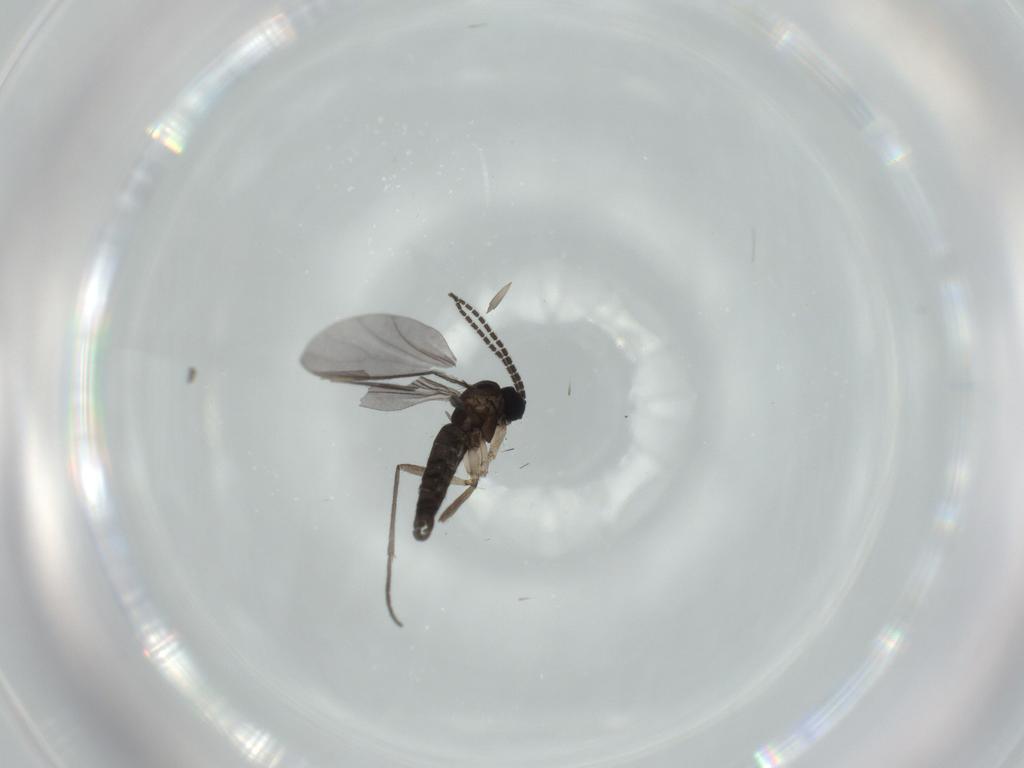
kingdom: Animalia
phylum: Arthropoda
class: Insecta
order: Diptera
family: Sciaridae
